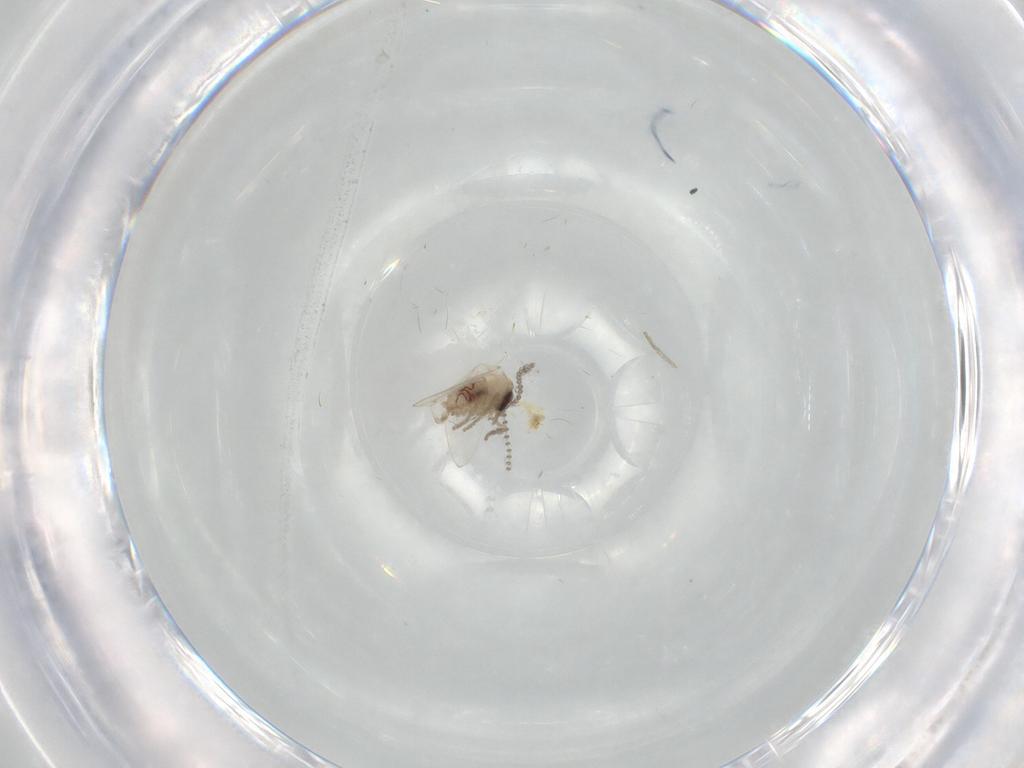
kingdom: Animalia
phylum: Arthropoda
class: Insecta
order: Diptera
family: Psychodidae
